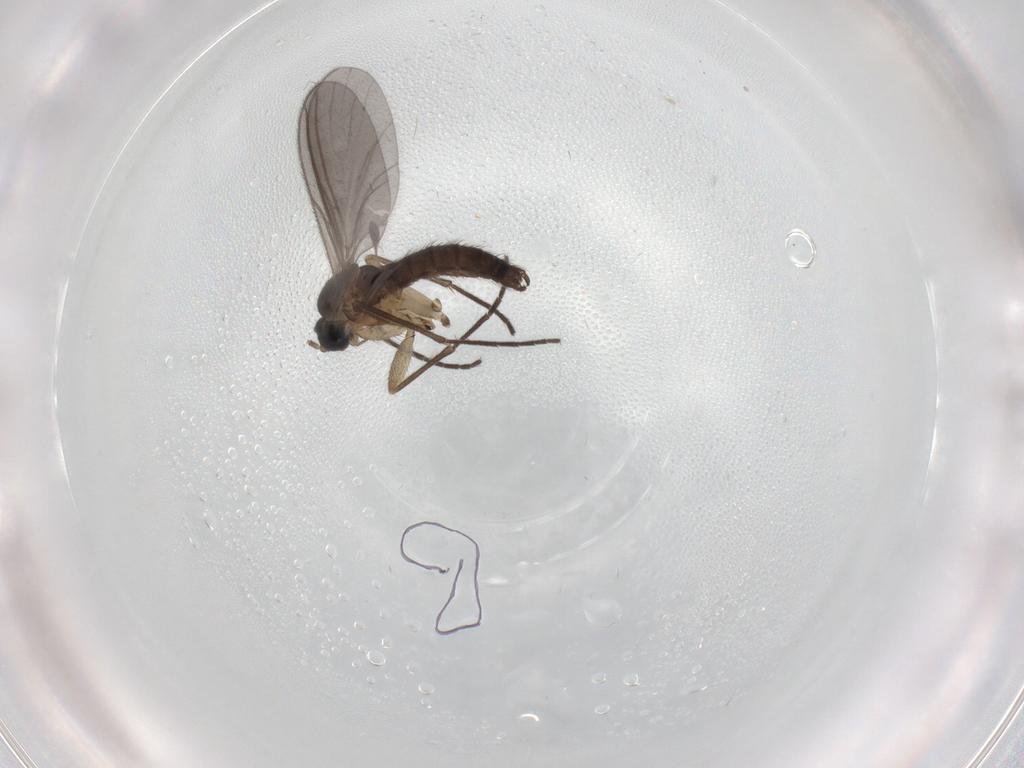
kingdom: Animalia
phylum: Arthropoda
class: Insecta
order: Diptera
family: Sciaridae
